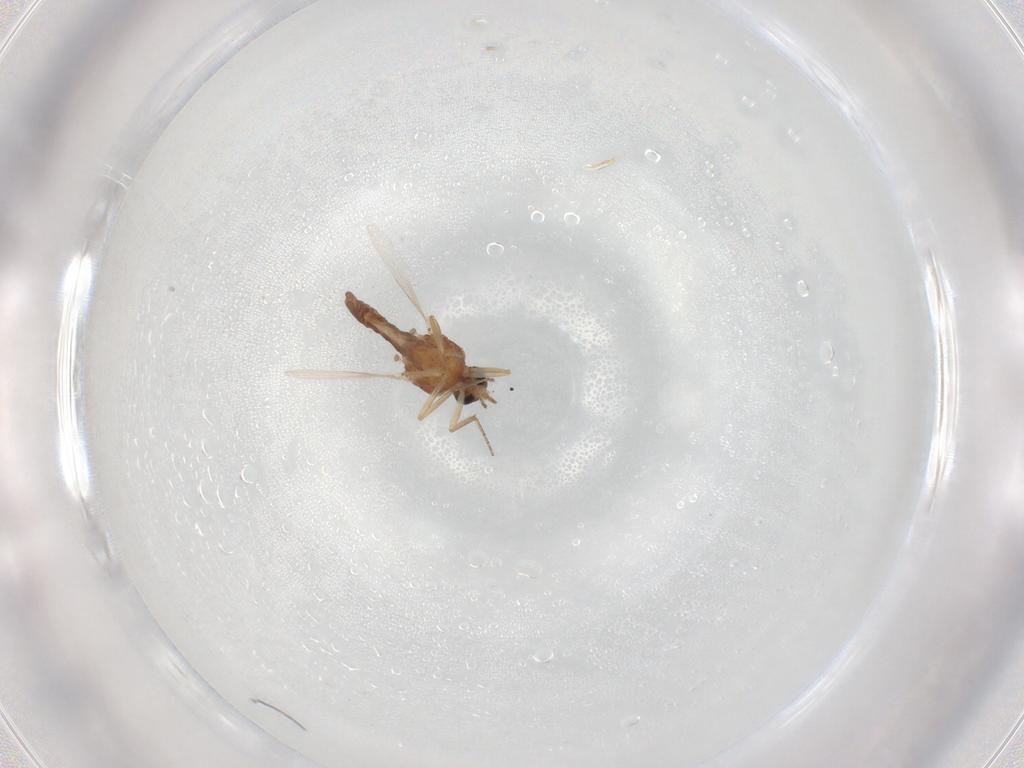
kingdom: Animalia
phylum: Arthropoda
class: Insecta
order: Diptera
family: Ceratopogonidae
